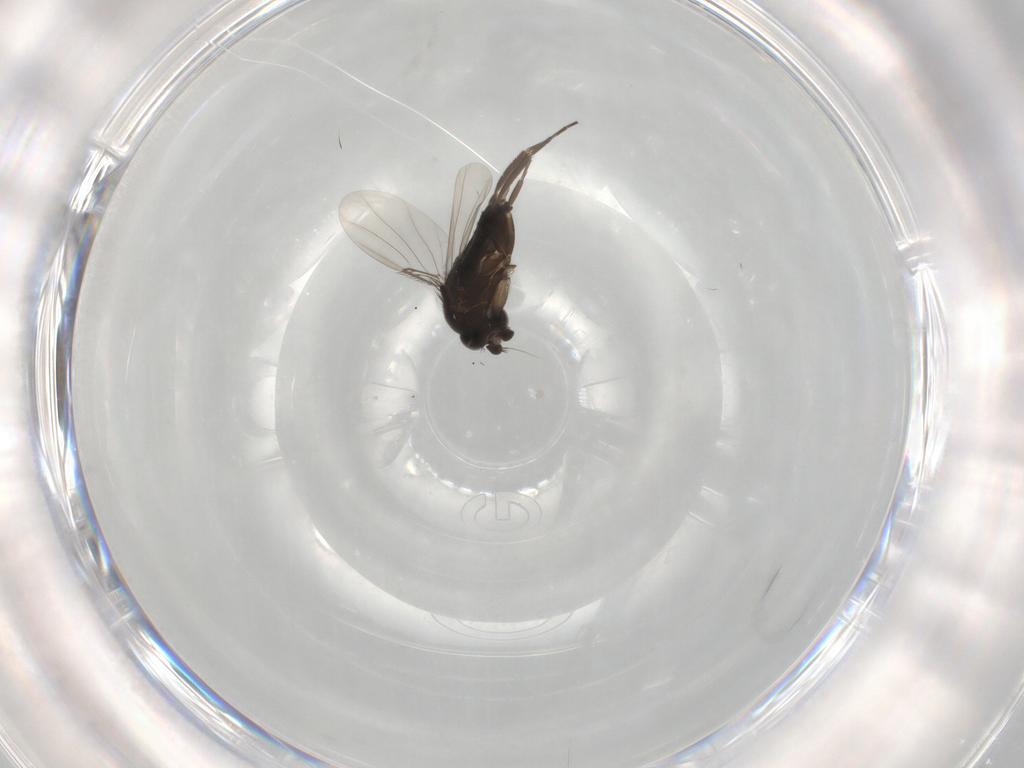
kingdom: Animalia
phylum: Arthropoda
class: Insecta
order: Diptera
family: Phoridae
